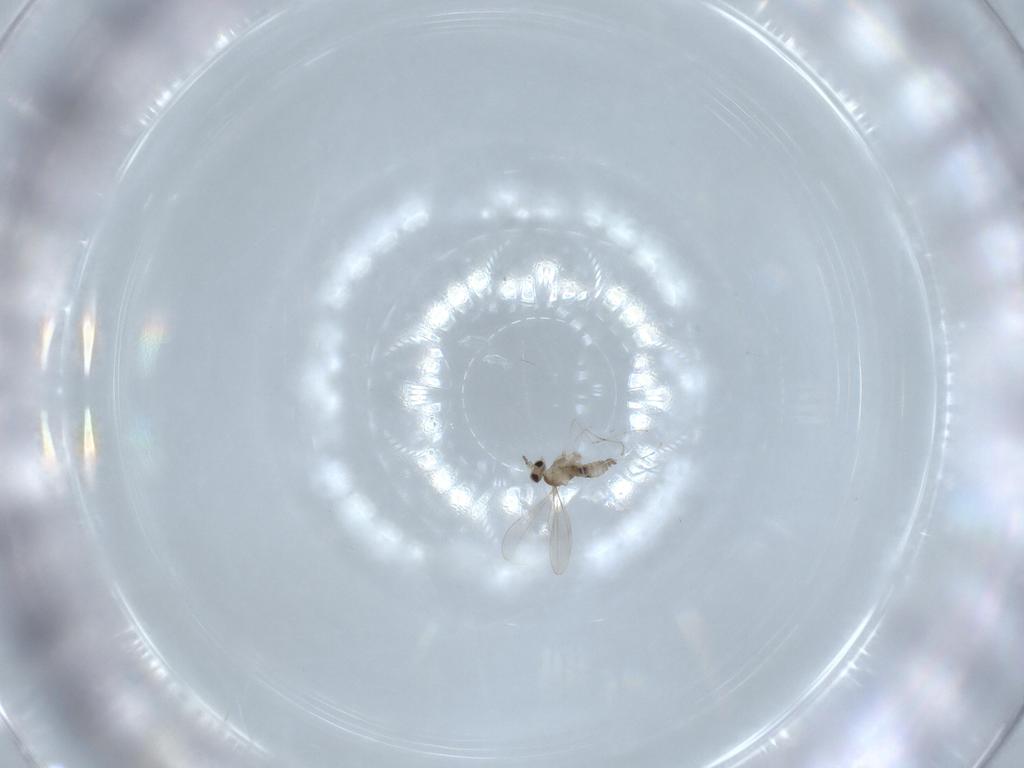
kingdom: Animalia
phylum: Arthropoda
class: Insecta
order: Diptera
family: Cecidomyiidae
